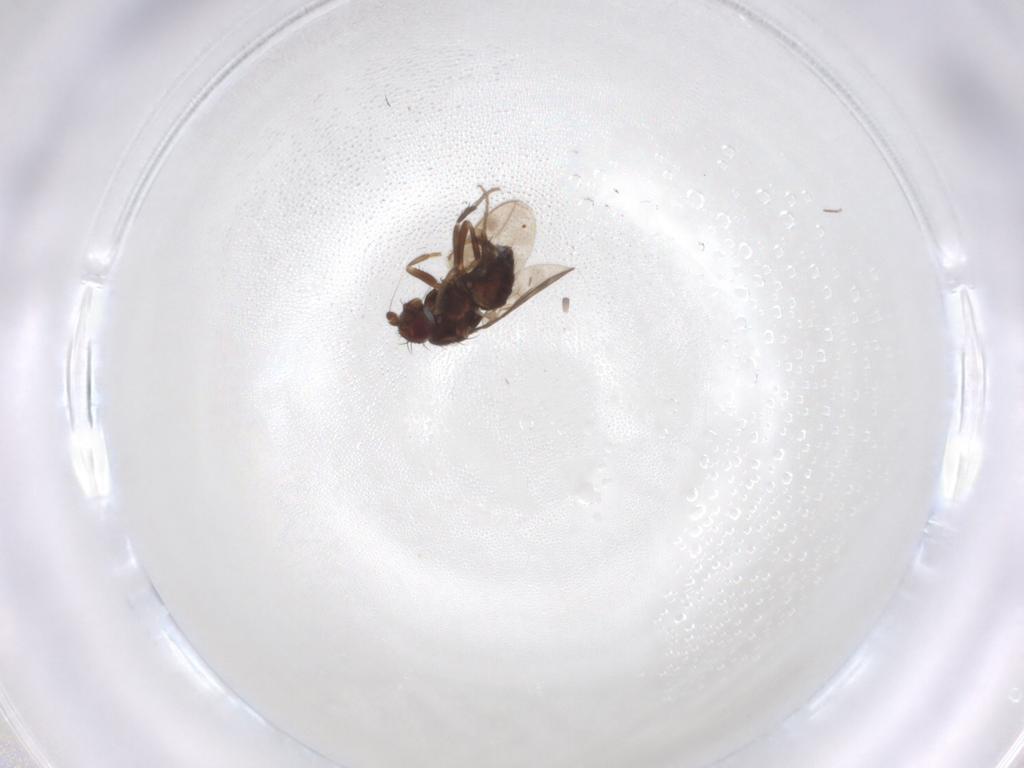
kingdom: Animalia
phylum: Arthropoda
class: Insecta
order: Diptera
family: Sphaeroceridae
